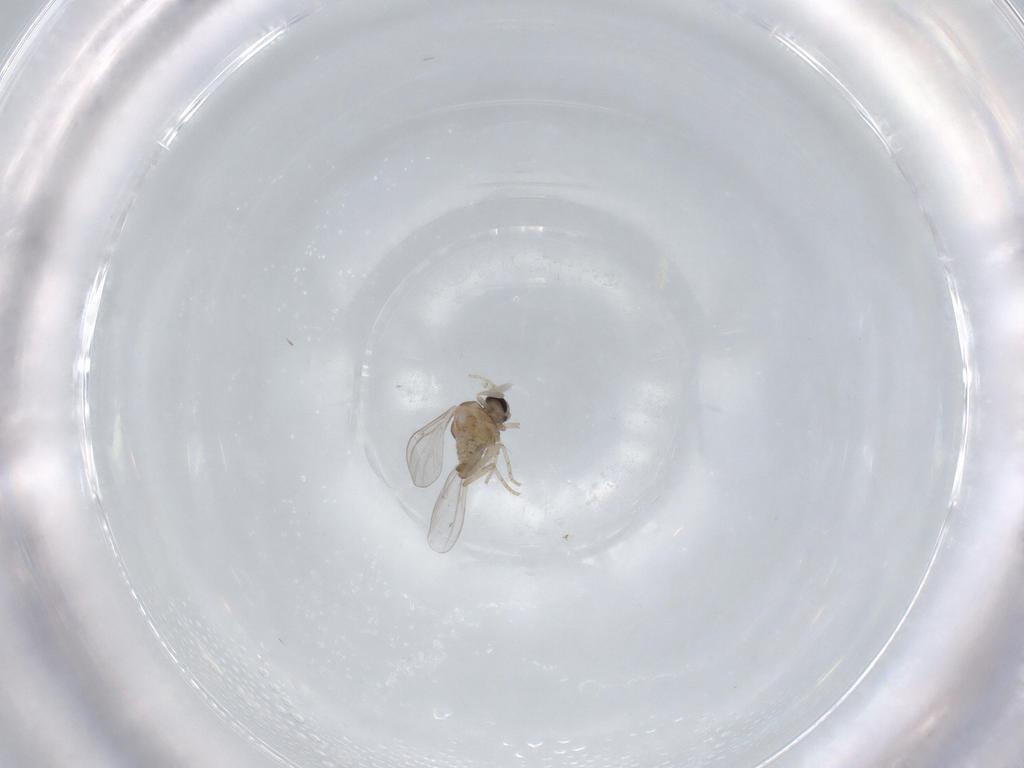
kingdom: Animalia
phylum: Arthropoda
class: Insecta
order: Diptera
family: Cecidomyiidae
